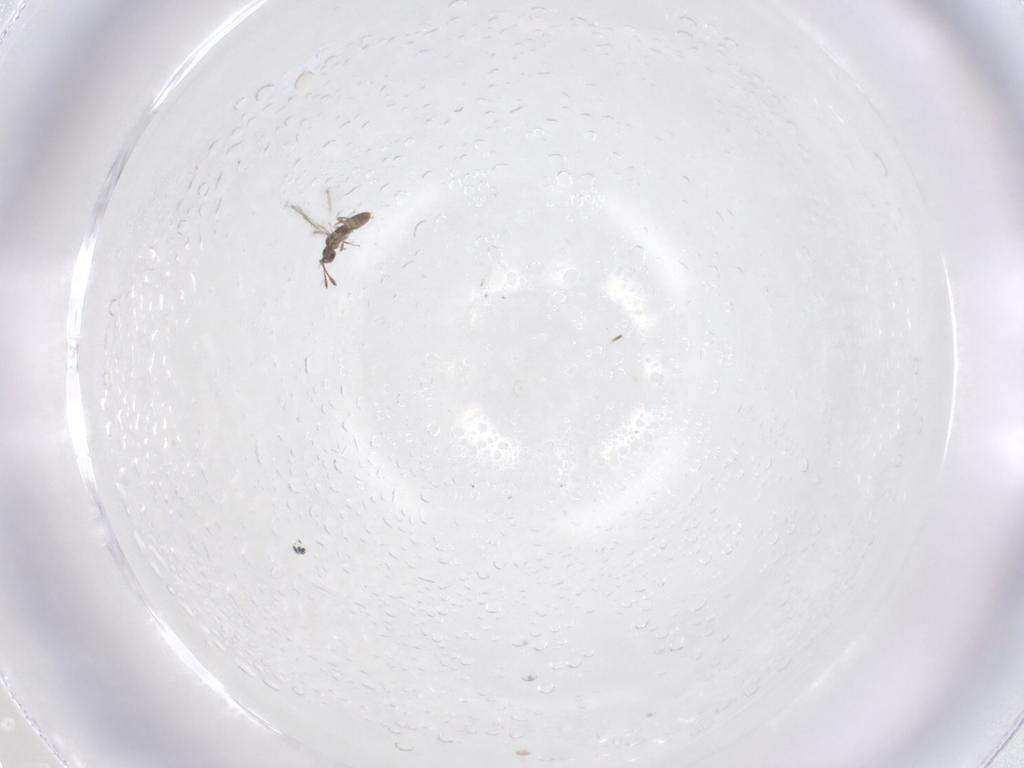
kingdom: Animalia
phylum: Arthropoda
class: Insecta
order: Hymenoptera
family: Mymaridae
